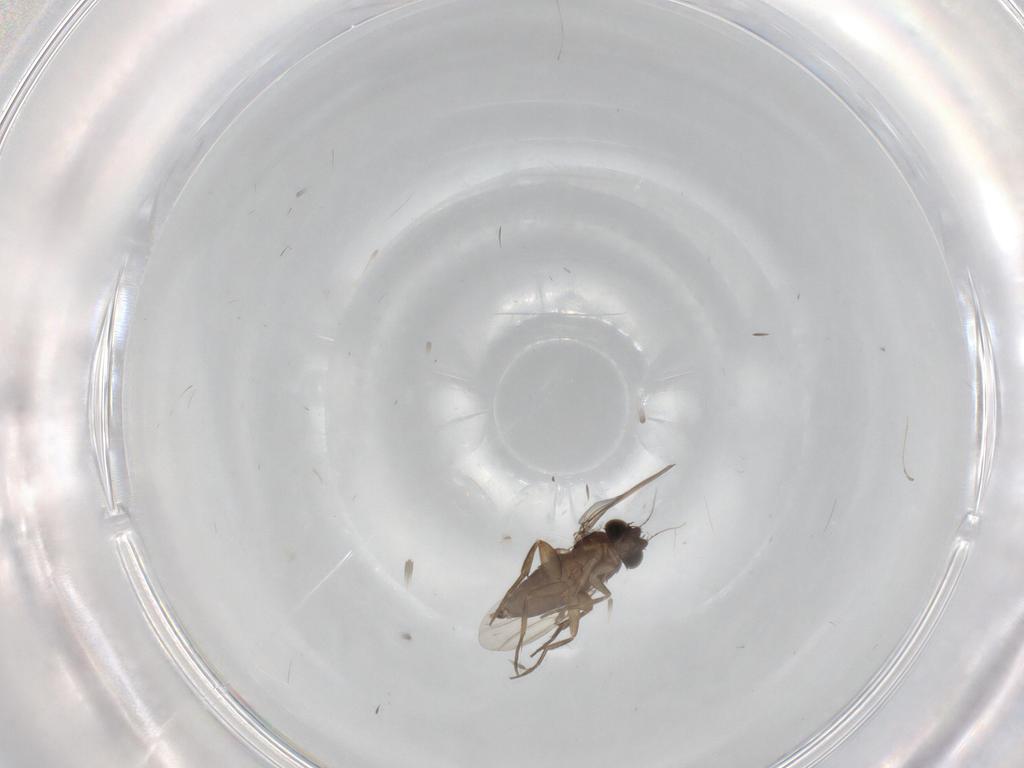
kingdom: Animalia
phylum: Arthropoda
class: Insecta
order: Diptera
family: Phoridae
